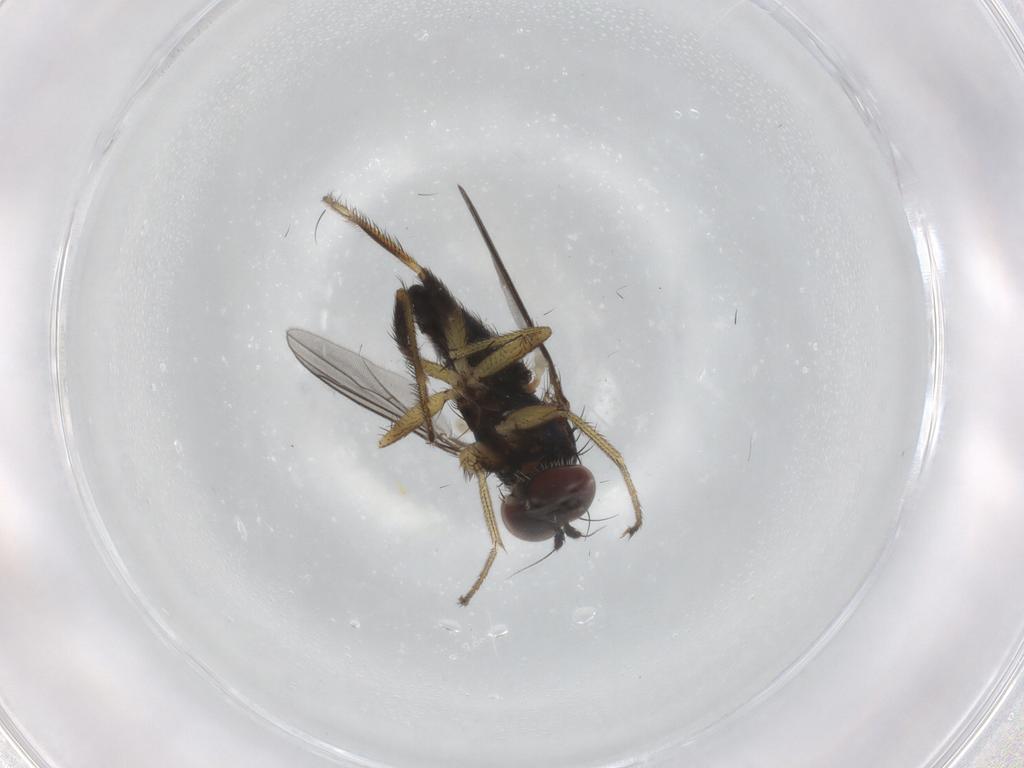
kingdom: Animalia
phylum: Arthropoda
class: Insecta
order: Diptera
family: Dolichopodidae
